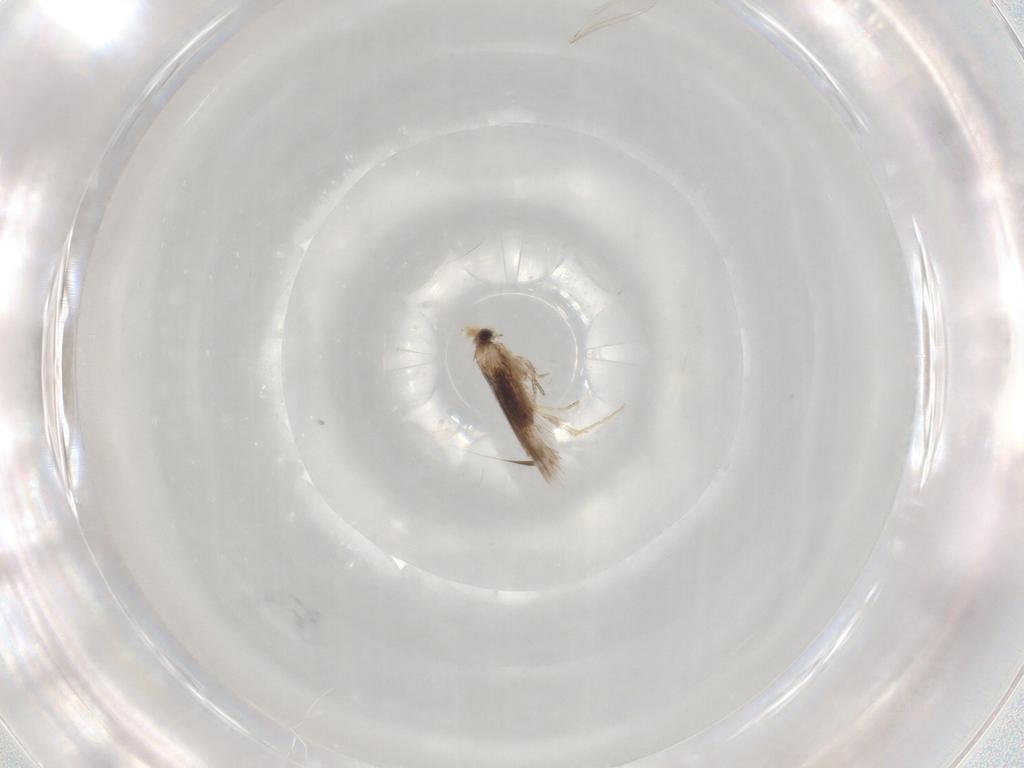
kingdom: Animalia
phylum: Arthropoda
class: Insecta
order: Lepidoptera
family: Nepticulidae
